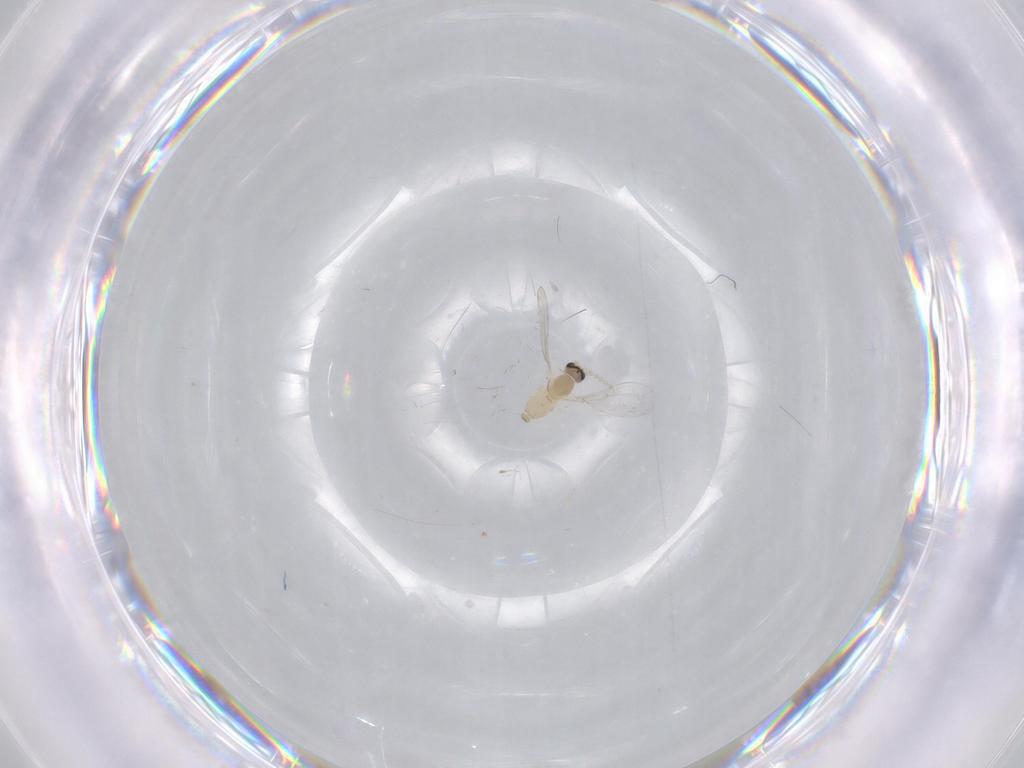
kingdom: Animalia
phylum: Arthropoda
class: Insecta
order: Diptera
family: Cecidomyiidae
